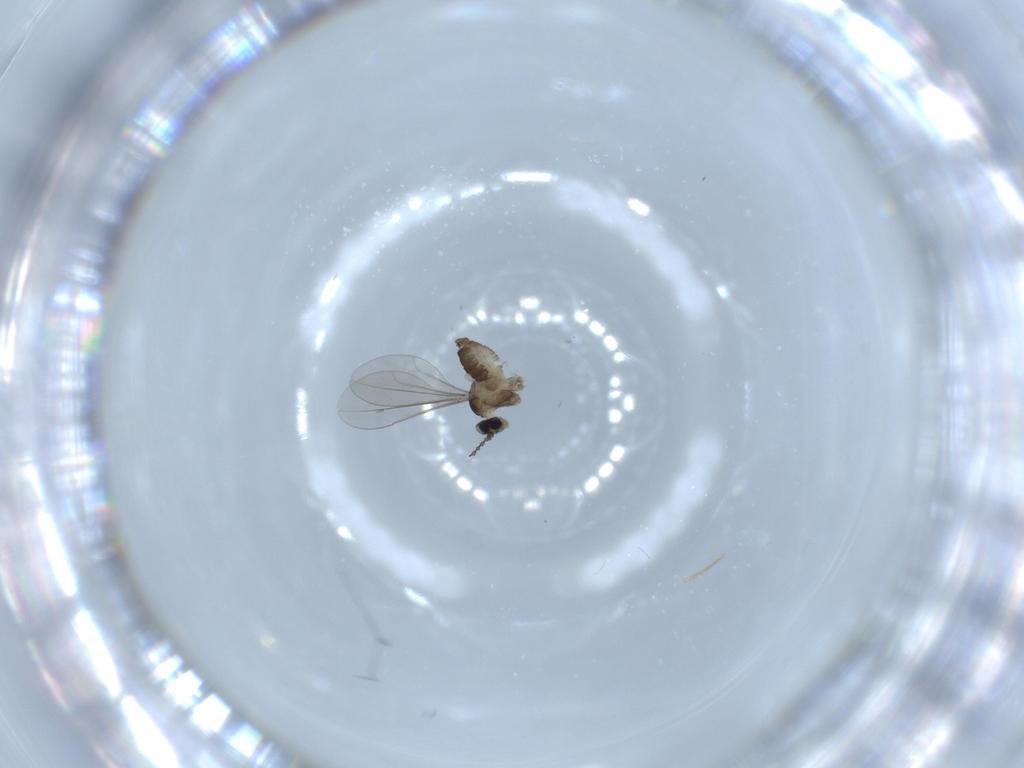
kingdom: Animalia
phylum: Arthropoda
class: Insecta
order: Diptera
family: Cecidomyiidae
